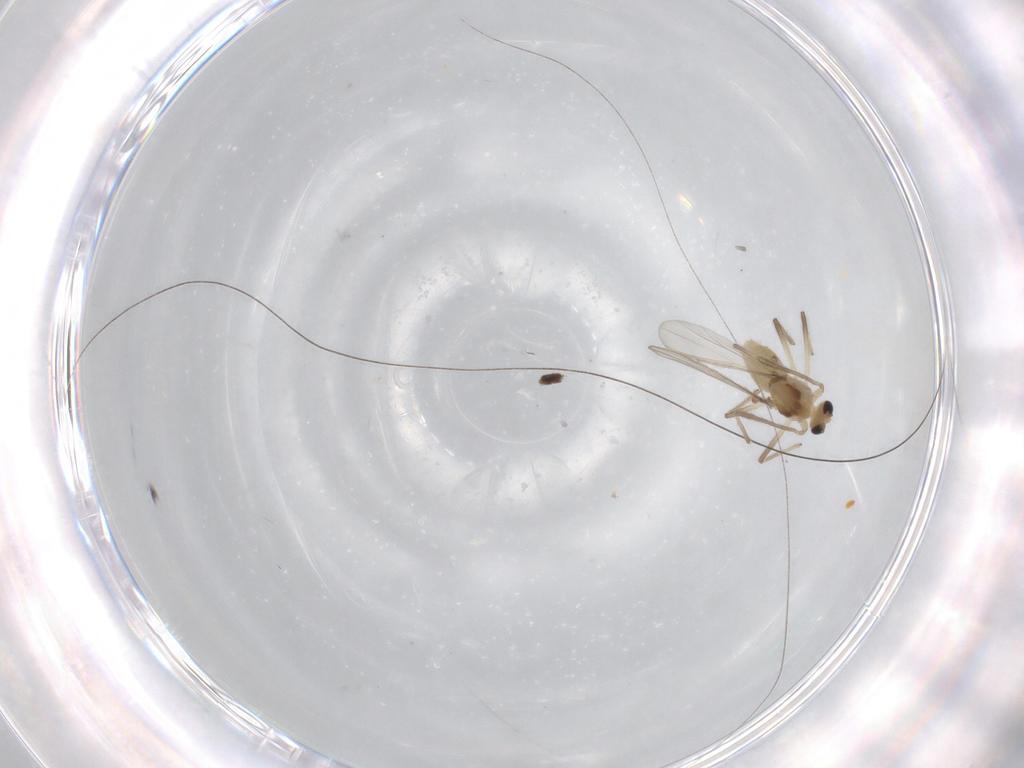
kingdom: Animalia
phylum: Arthropoda
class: Insecta
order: Diptera
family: Chironomidae
